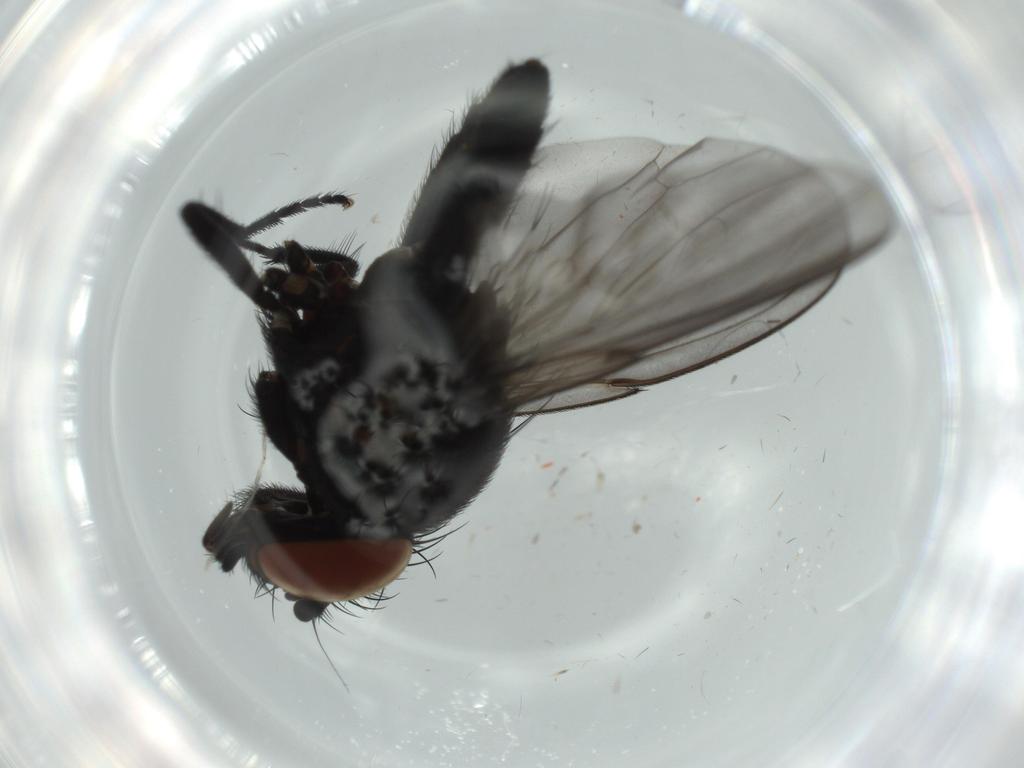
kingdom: Animalia
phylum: Arthropoda
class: Insecta
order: Diptera
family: Milichiidae
